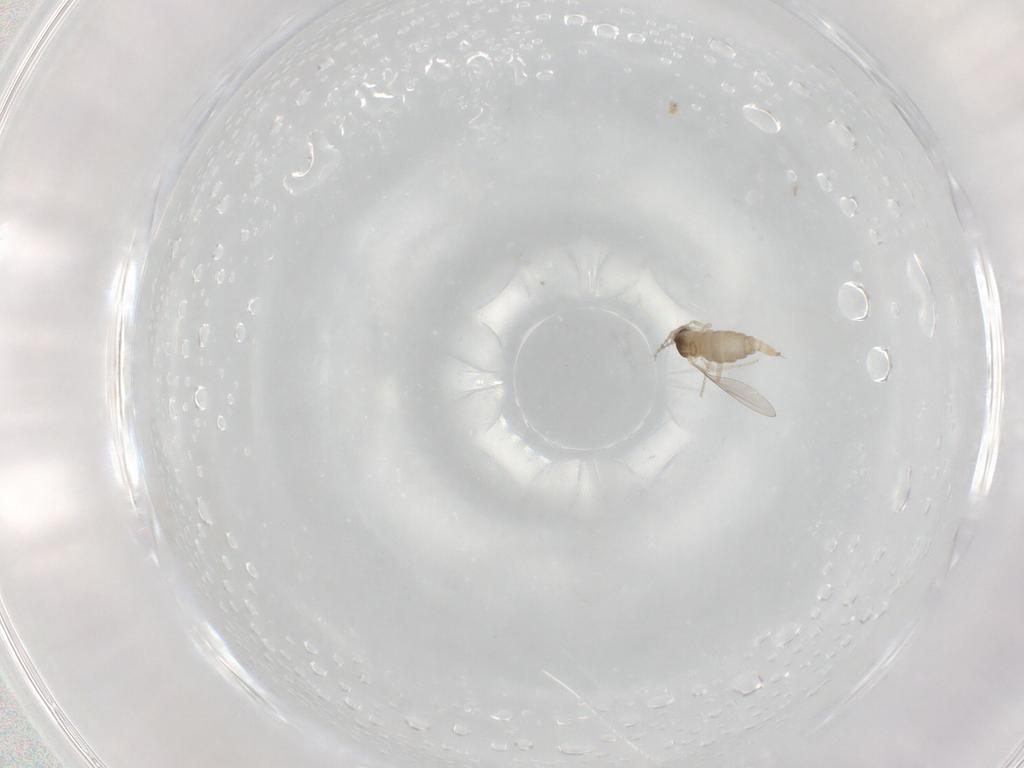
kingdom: Animalia
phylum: Arthropoda
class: Insecta
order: Diptera
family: Cecidomyiidae
